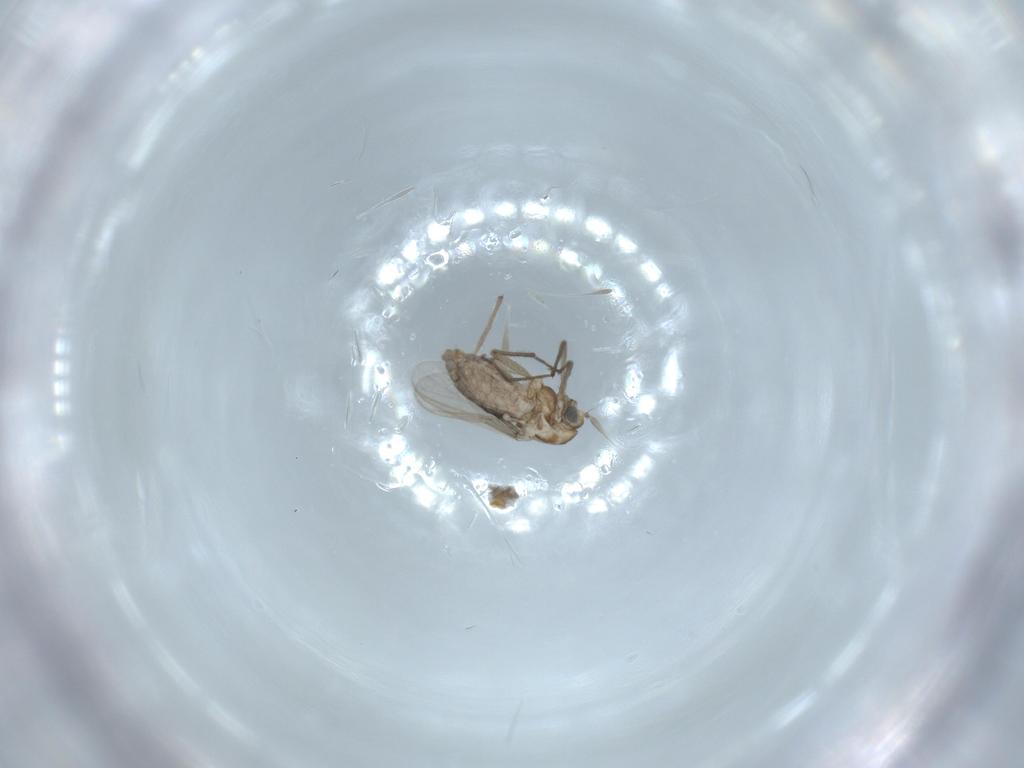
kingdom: Animalia
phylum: Arthropoda
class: Insecta
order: Diptera
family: Chironomidae
